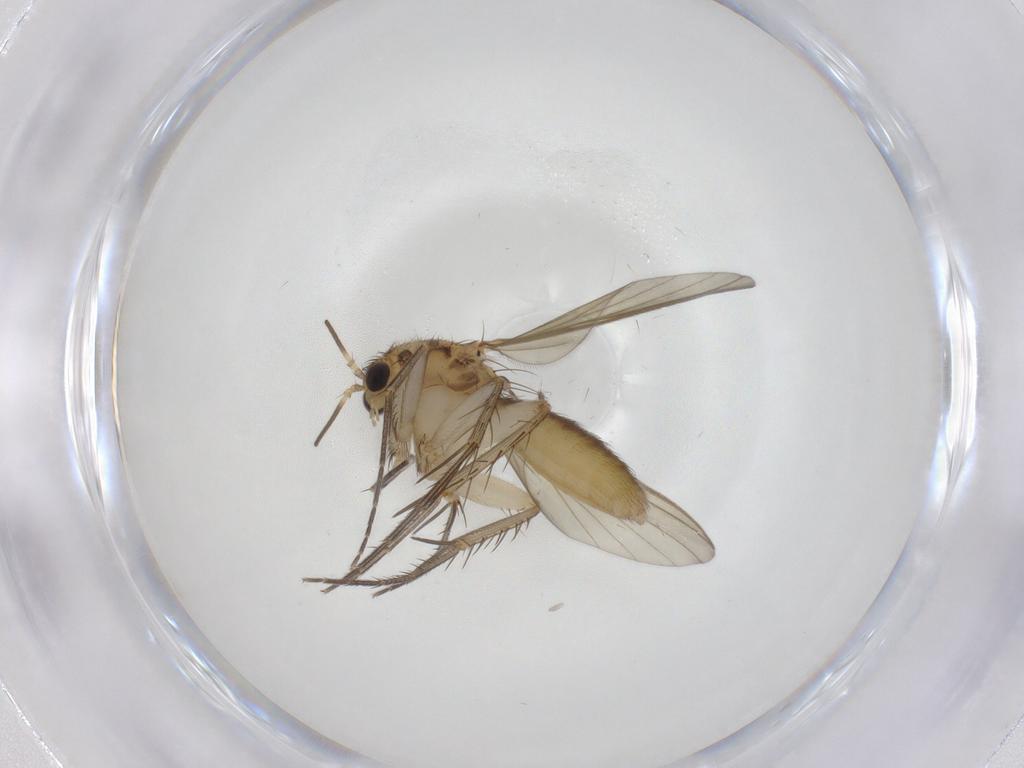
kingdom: Animalia
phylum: Arthropoda
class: Insecta
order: Diptera
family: Mycetophilidae
